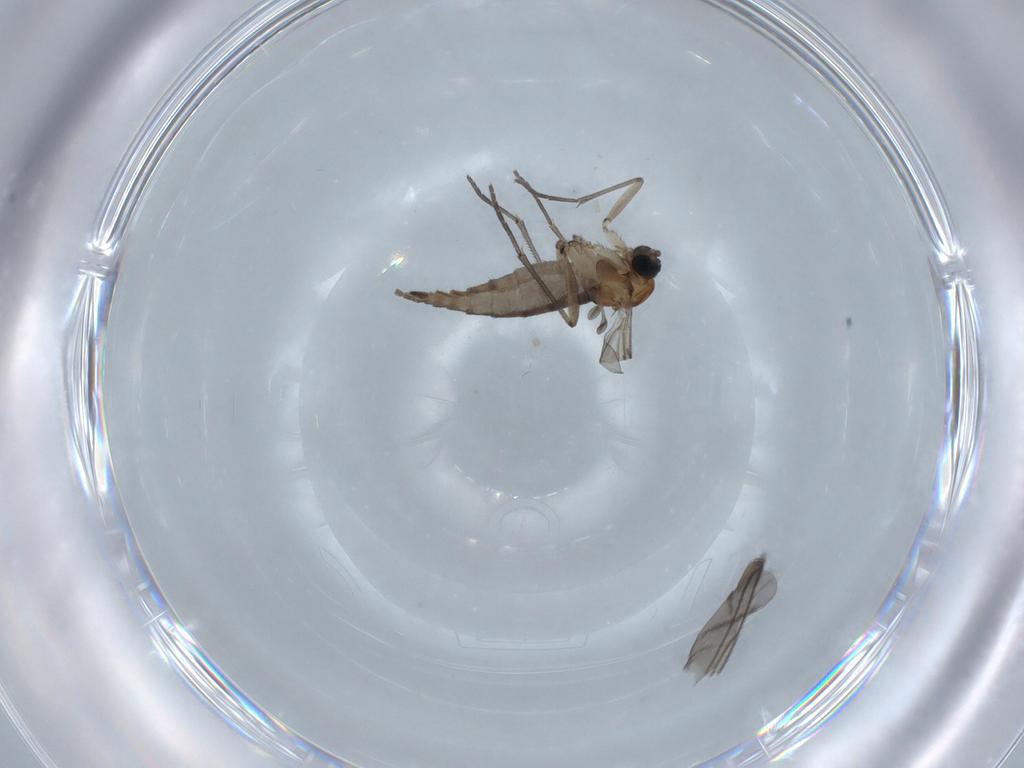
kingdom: Animalia
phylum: Arthropoda
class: Insecta
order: Diptera
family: Sciaridae
